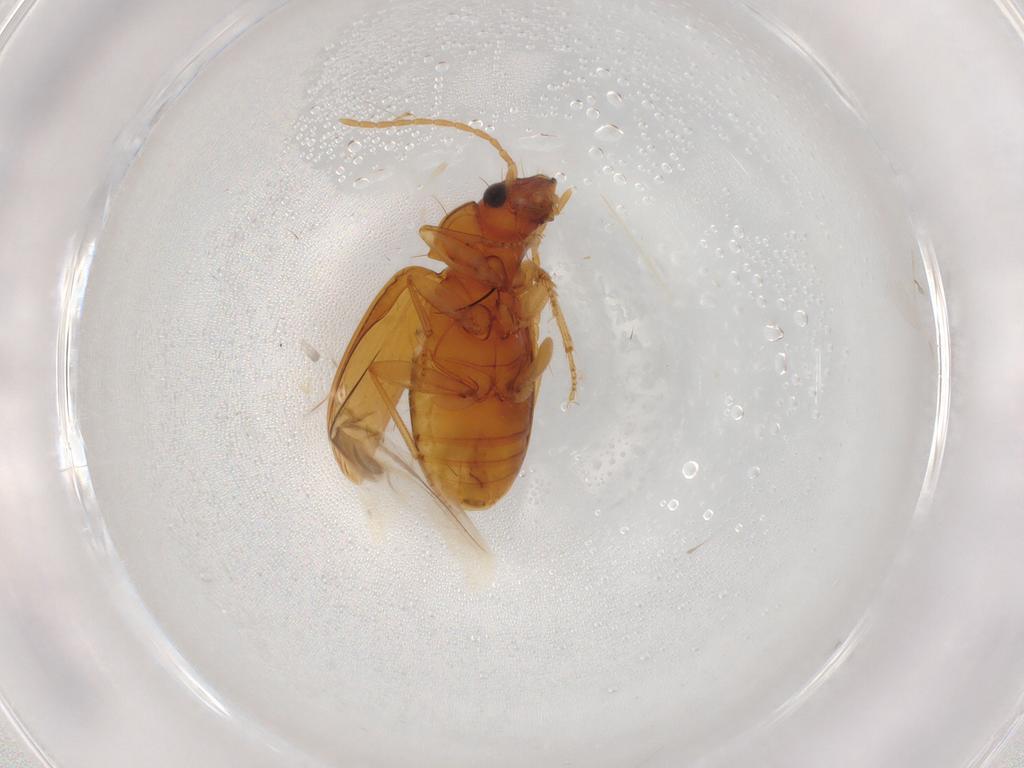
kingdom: Animalia
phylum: Arthropoda
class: Insecta
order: Coleoptera
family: Carabidae
